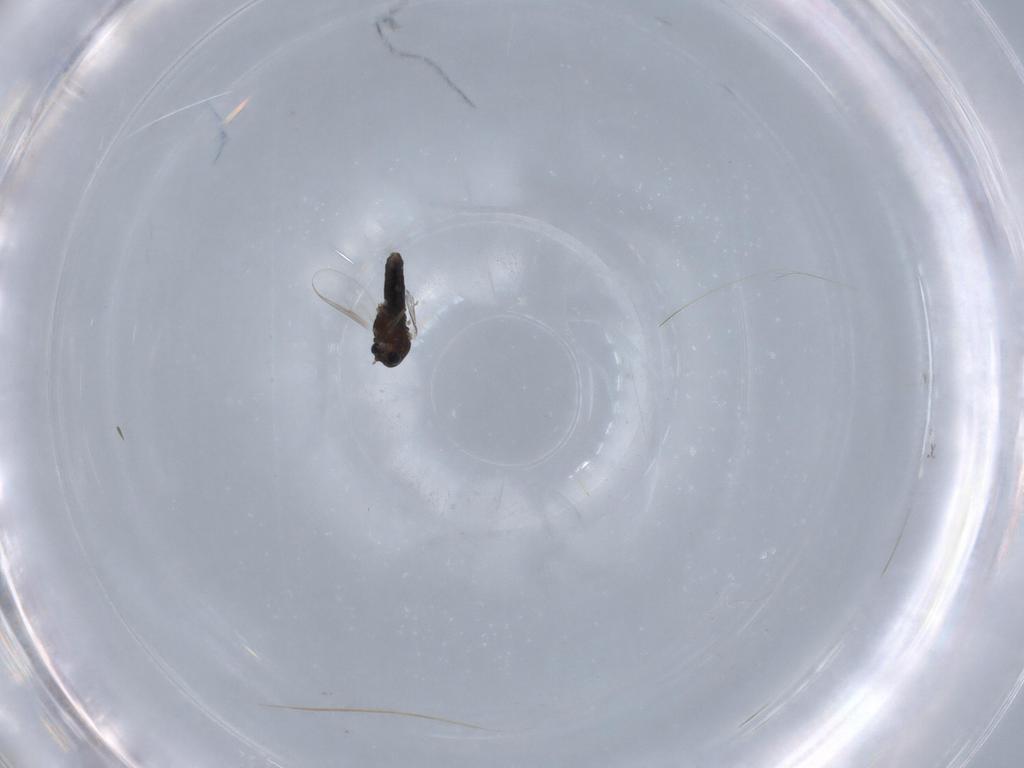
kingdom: Animalia
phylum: Arthropoda
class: Insecta
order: Diptera
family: Chironomidae
